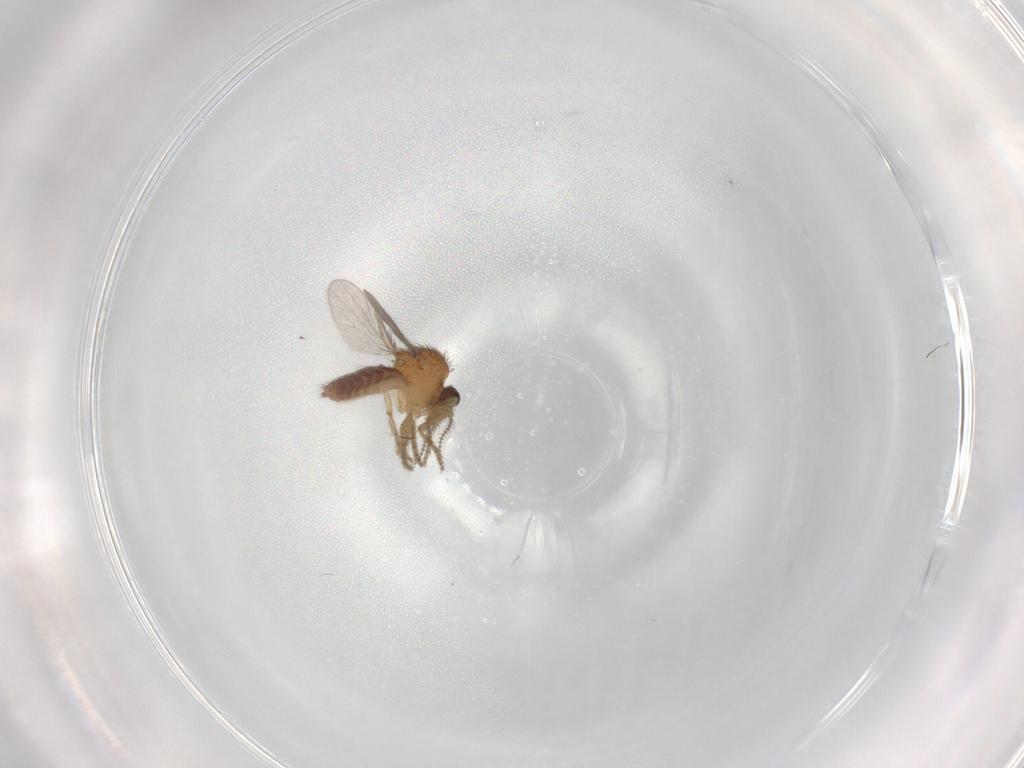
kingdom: Animalia
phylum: Arthropoda
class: Insecta
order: Diptera
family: Ceratopogonidae
